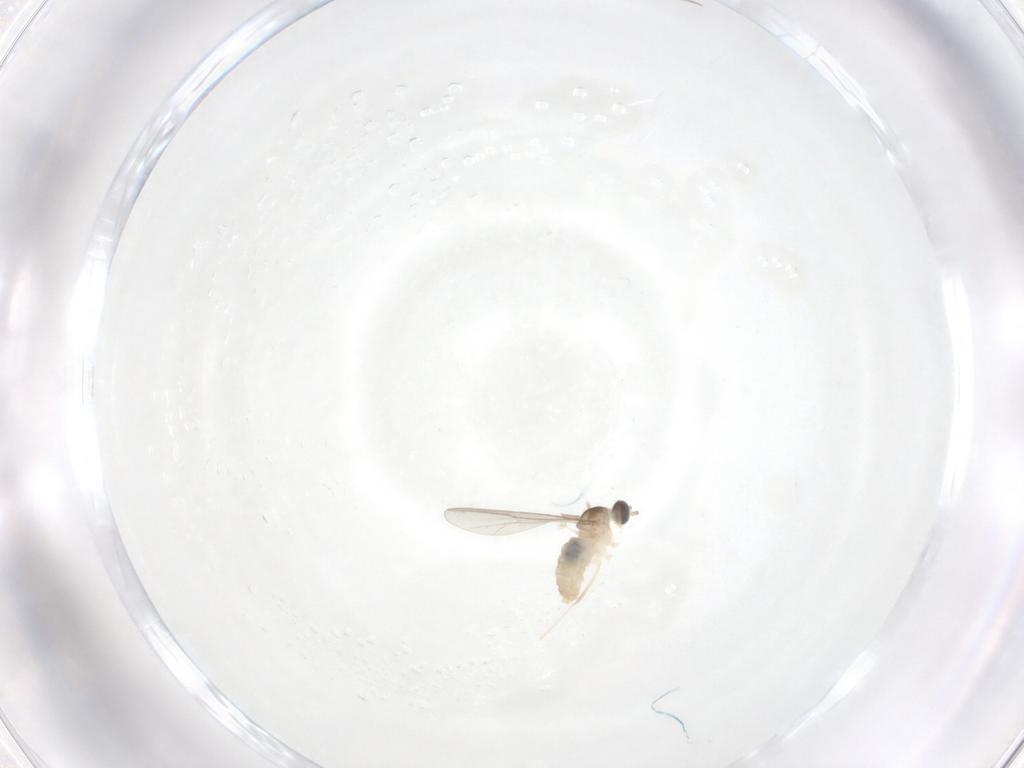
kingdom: Animalia
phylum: Arthropoda
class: Insecta
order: Diptera
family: Cecidomyiidae
